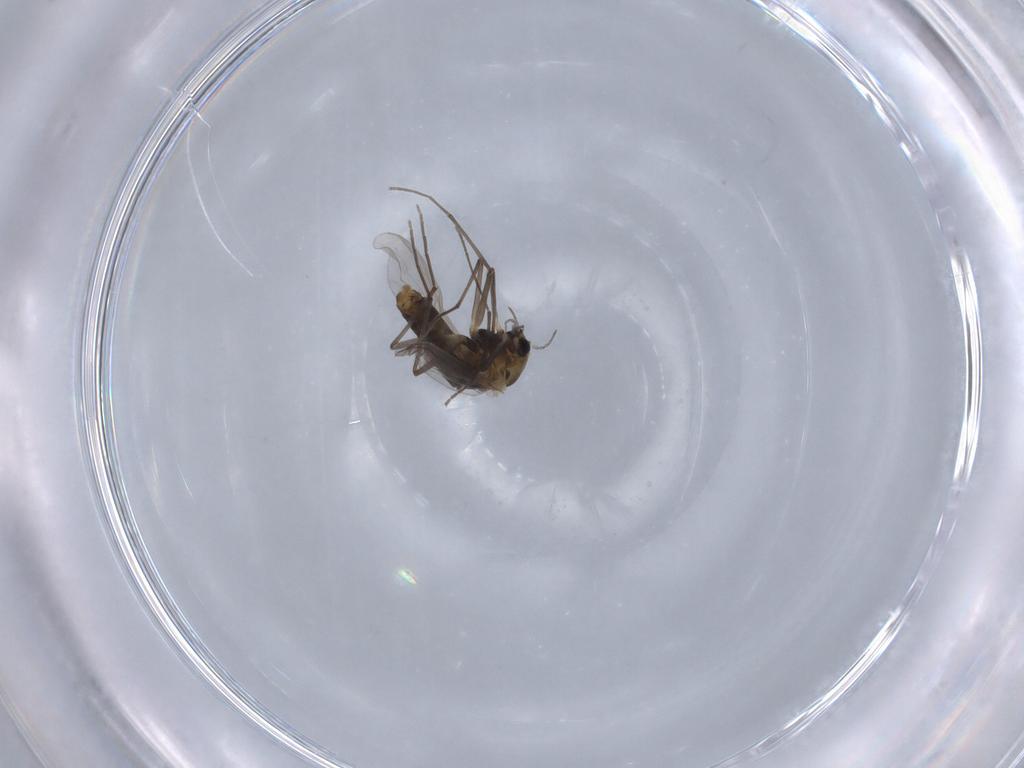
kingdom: Animalia
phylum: Arthropoda
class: Insecta
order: Diptera
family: Chironomidae
